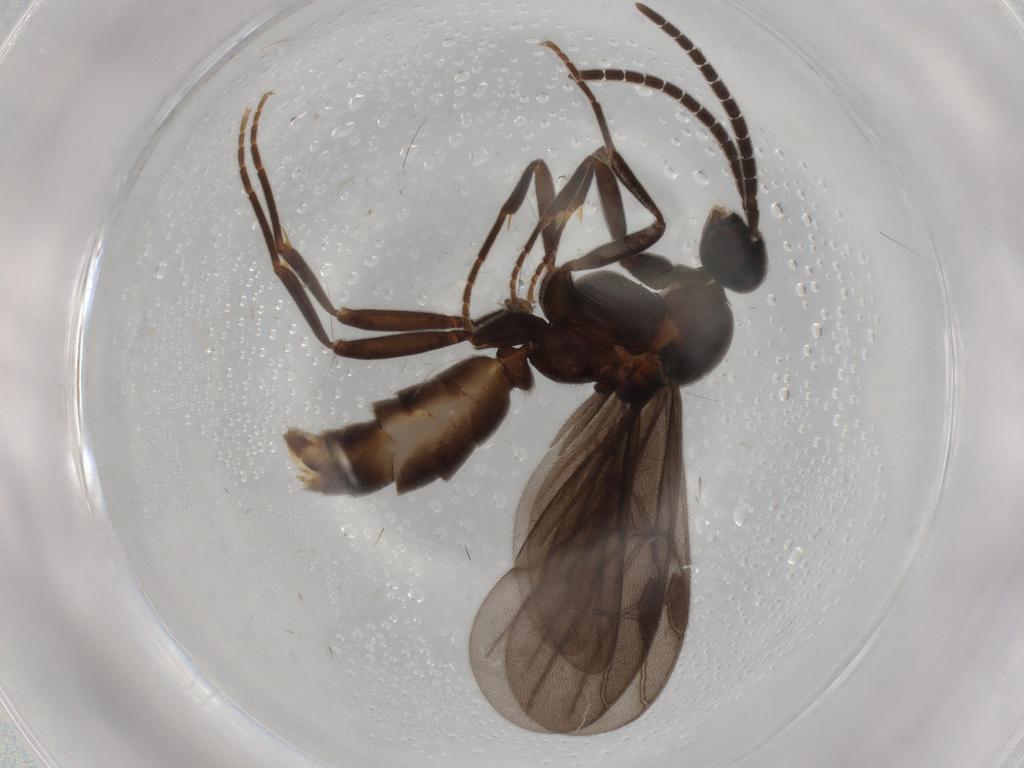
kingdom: Animalia
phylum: Arthropoda
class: Insecta
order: Hymenoptera
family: Formicidae
